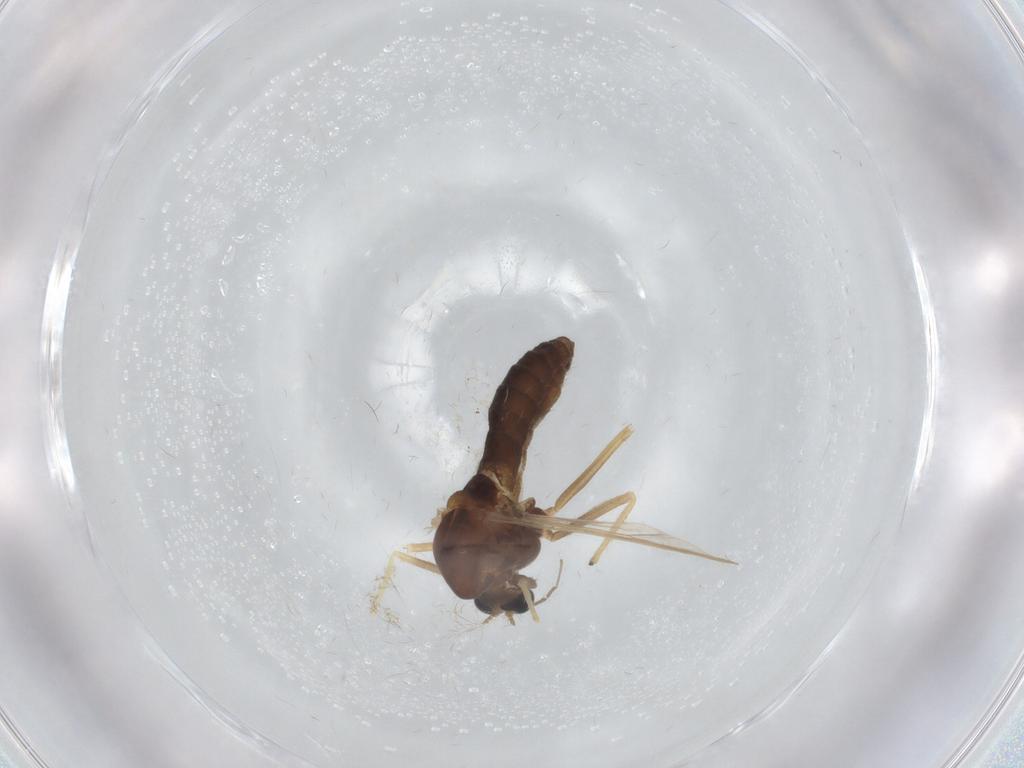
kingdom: Animalia
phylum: Arthropoda
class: Insecta
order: Diptera
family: Chironomidae
